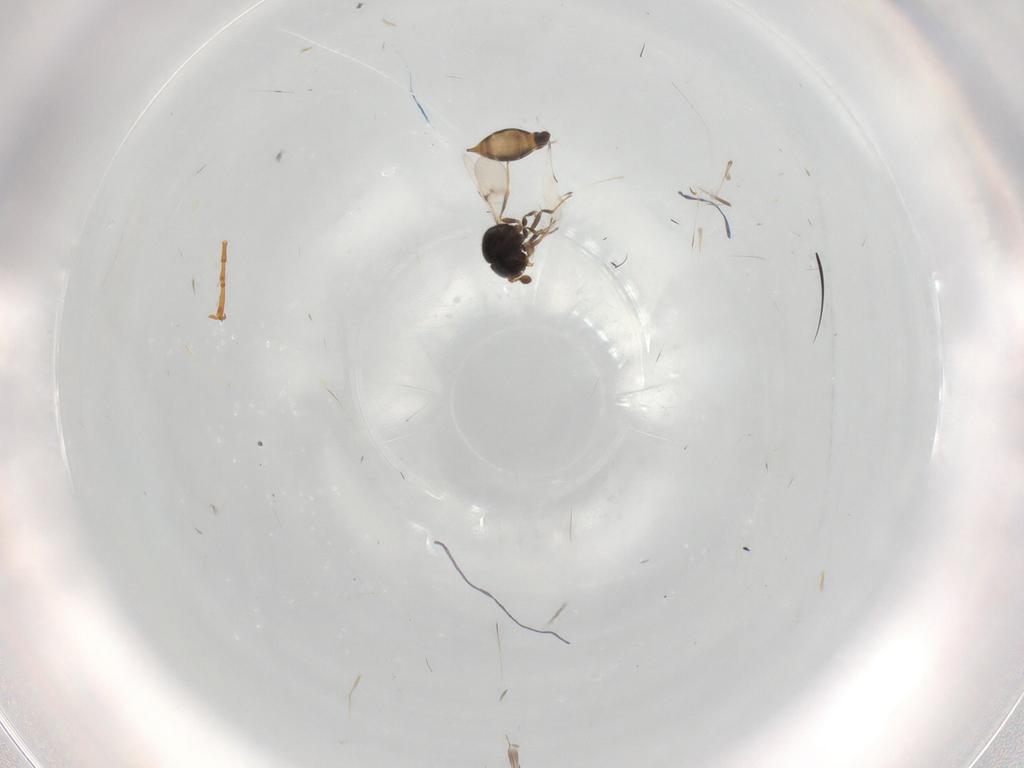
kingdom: Animalia
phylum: Arthropoda
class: Insecta
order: Hymenoptera
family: Scelionidae
